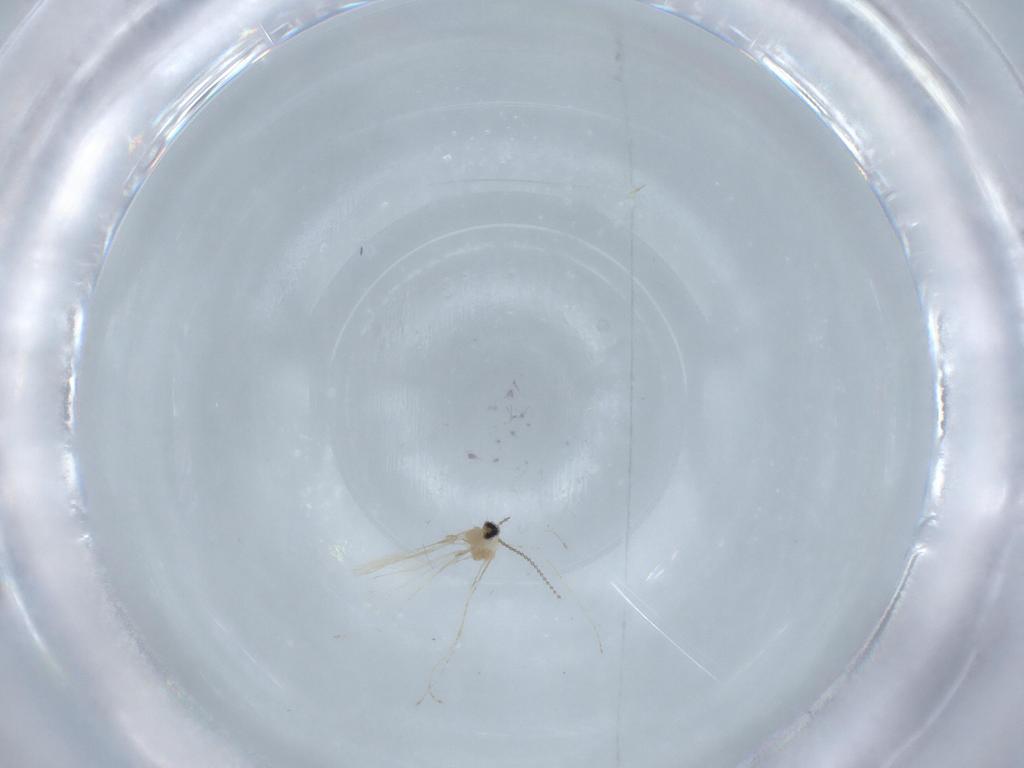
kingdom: Animalia
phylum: Arthropoda
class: Insecta
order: Diptera
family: Cecidomyiidae
